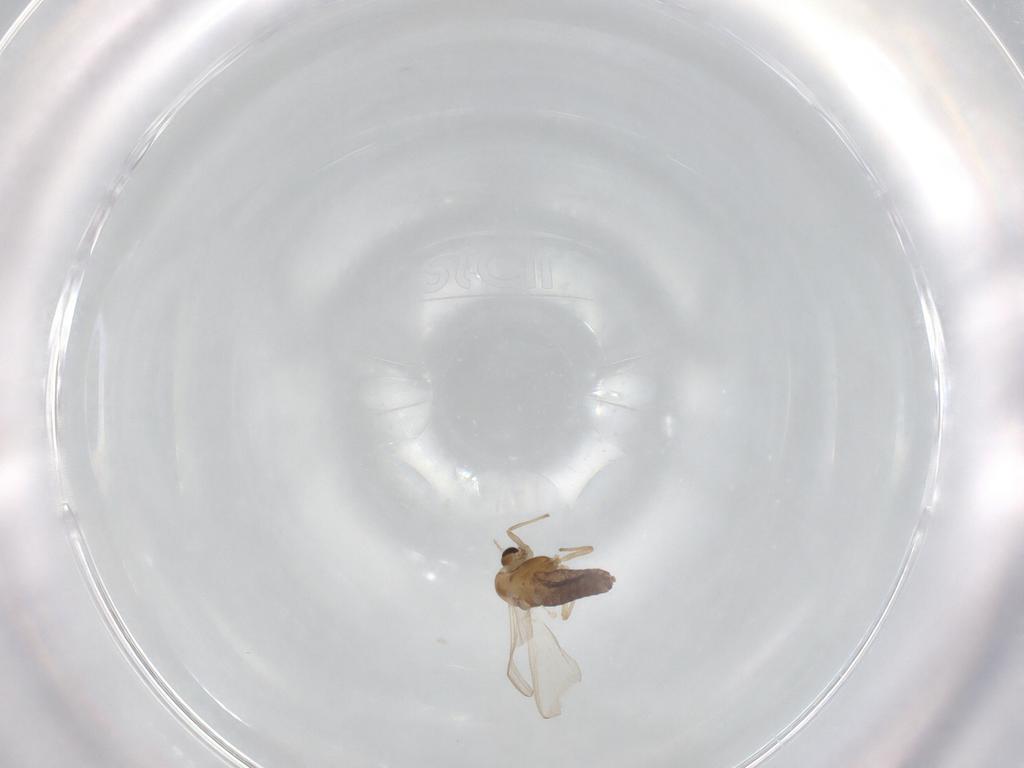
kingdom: Animalia
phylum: Arthropoda
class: Insecta
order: Diptera
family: Chironomidae
